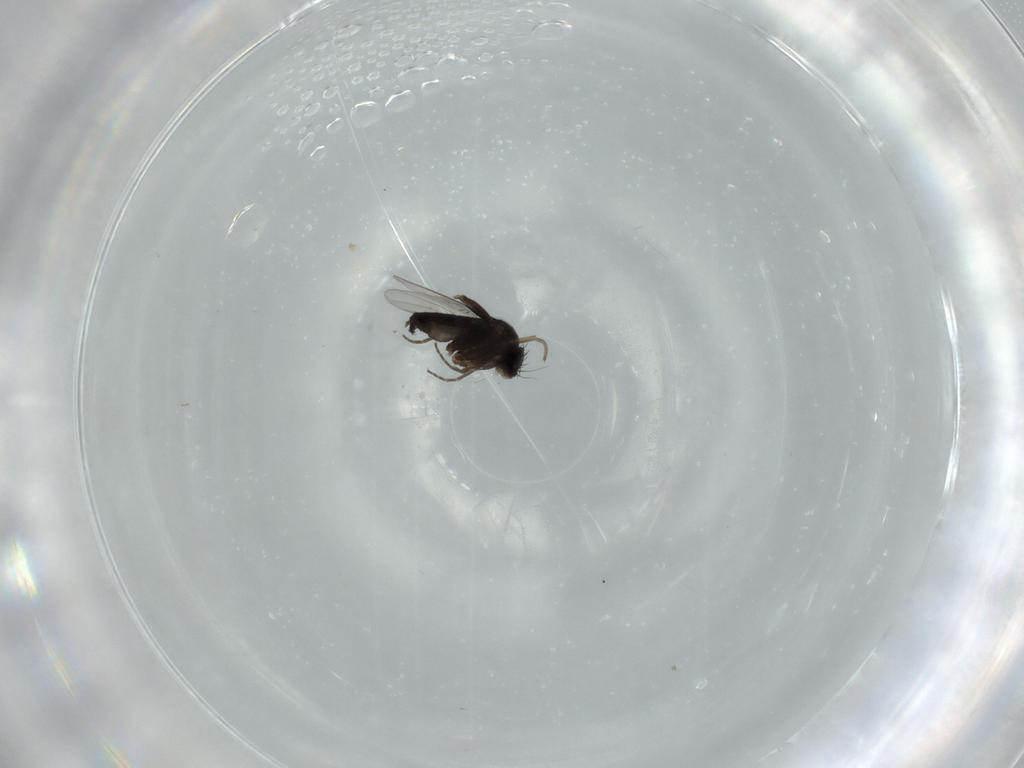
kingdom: Animalia
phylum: Arthropoda
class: Insecta
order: Diptera
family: Phoridae
